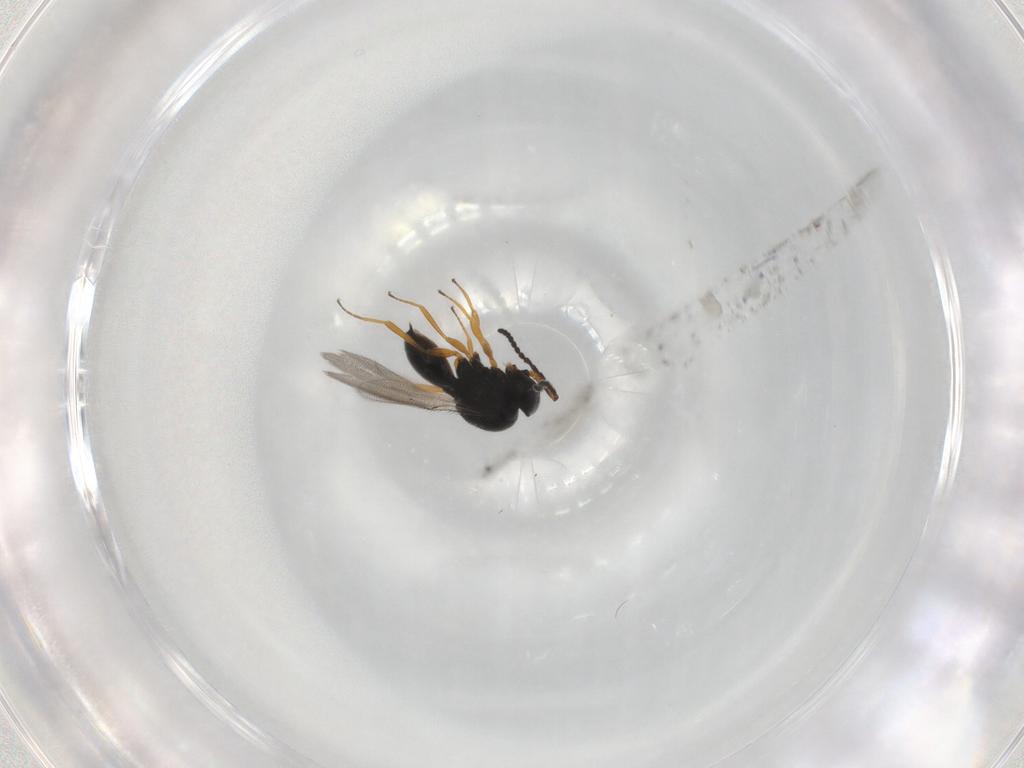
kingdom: Animalia
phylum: Arthropoda
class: Insecta
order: Hymenoptera
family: Scelionidae
